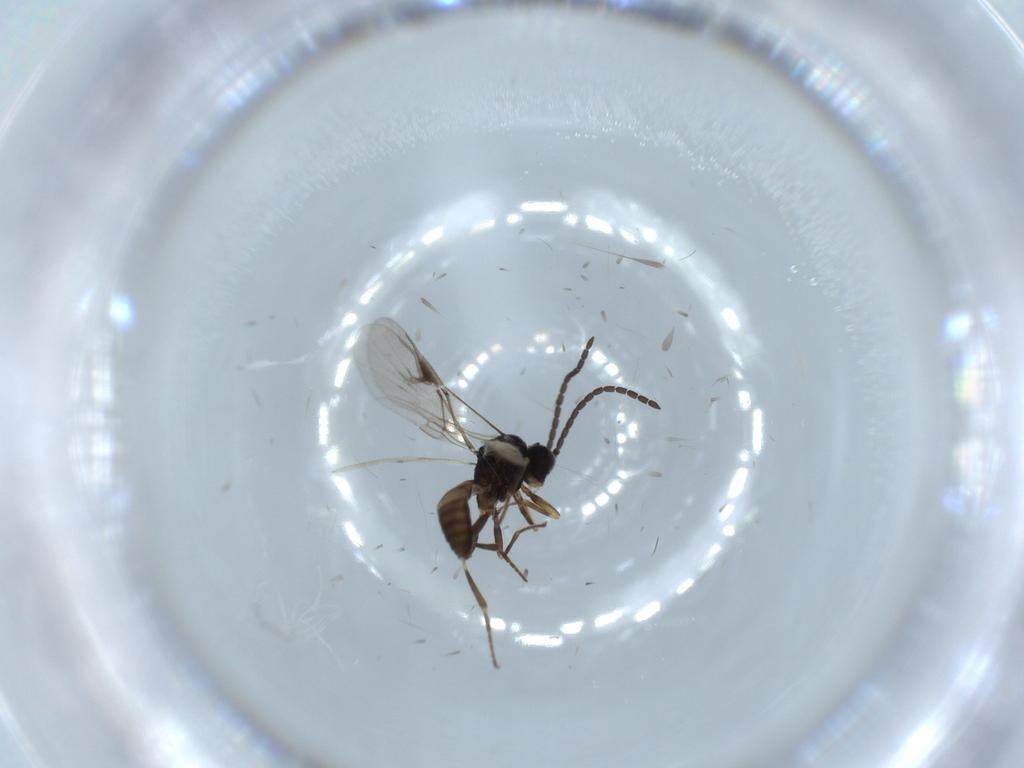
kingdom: Animalia
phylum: Arthropoda
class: Insecta
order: Hymenoptera
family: Braconidae
